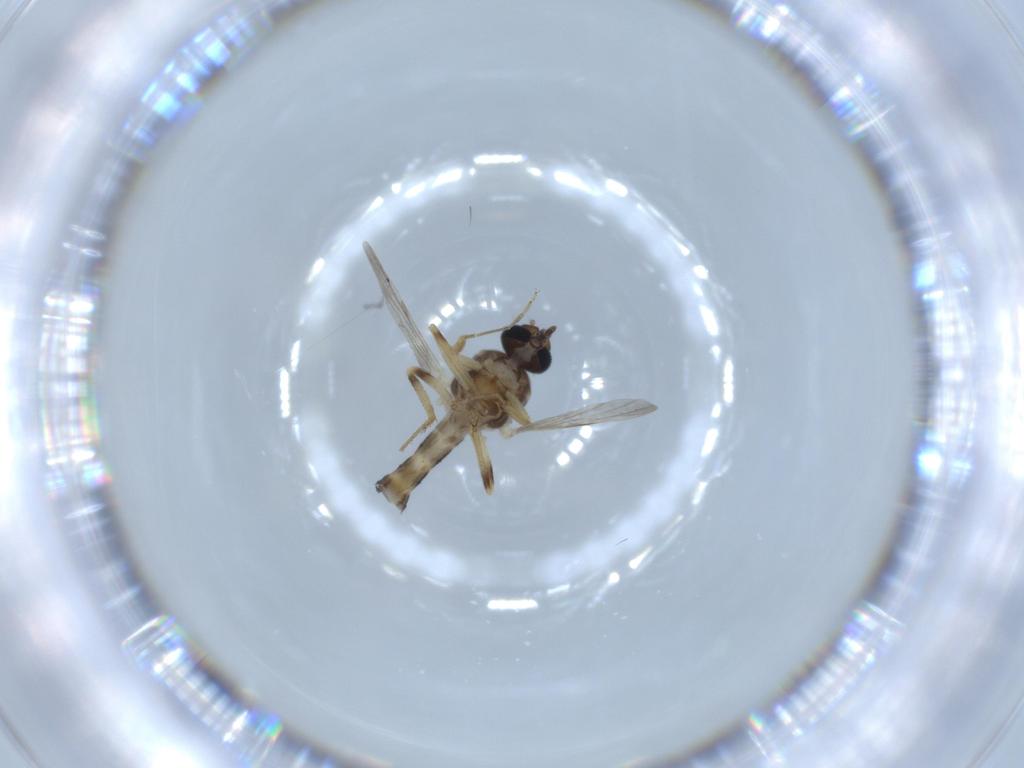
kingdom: Animalia
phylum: Arthropoda
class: Insecta
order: Diptera
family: Ceratopogonidae
